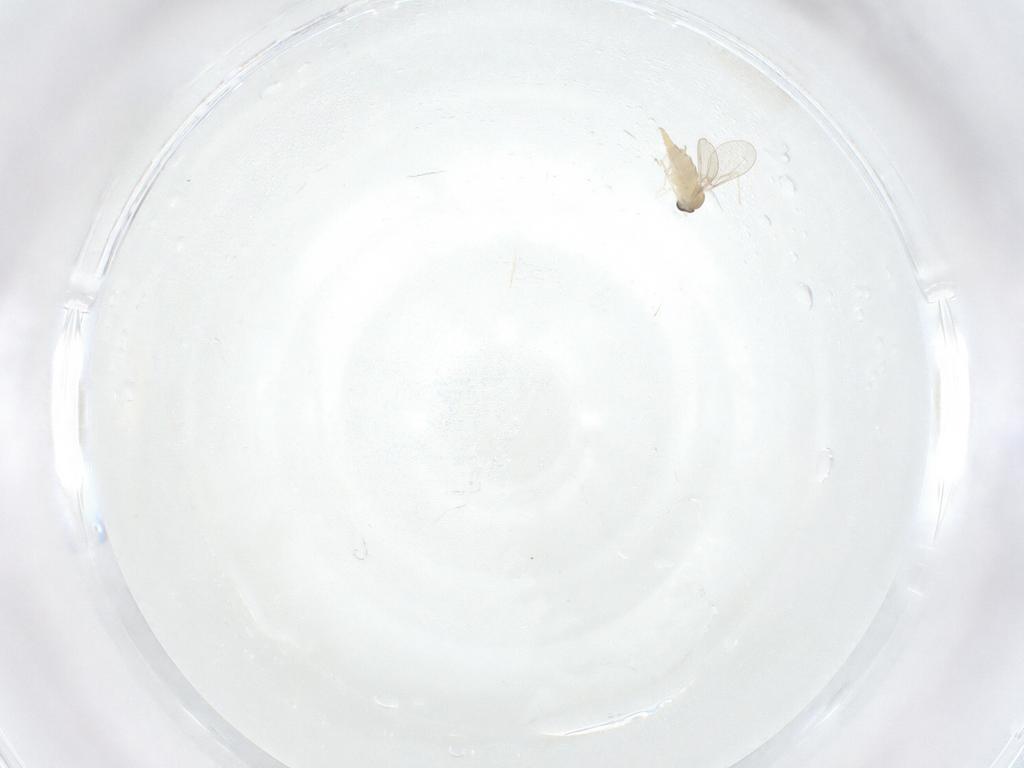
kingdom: Animalia
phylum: Arthropoda
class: Insecta
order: Diptera
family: Cecidomyiidae
